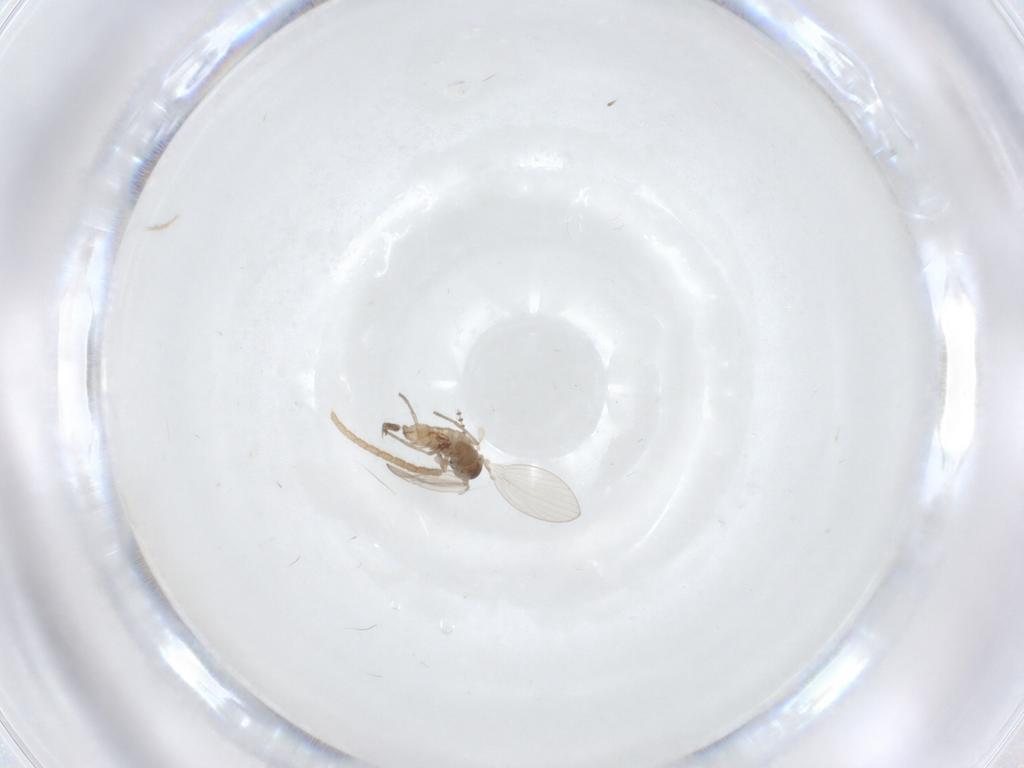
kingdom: Animalia
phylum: Arthropoda
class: Insecta
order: Diptera
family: Psychodidae
